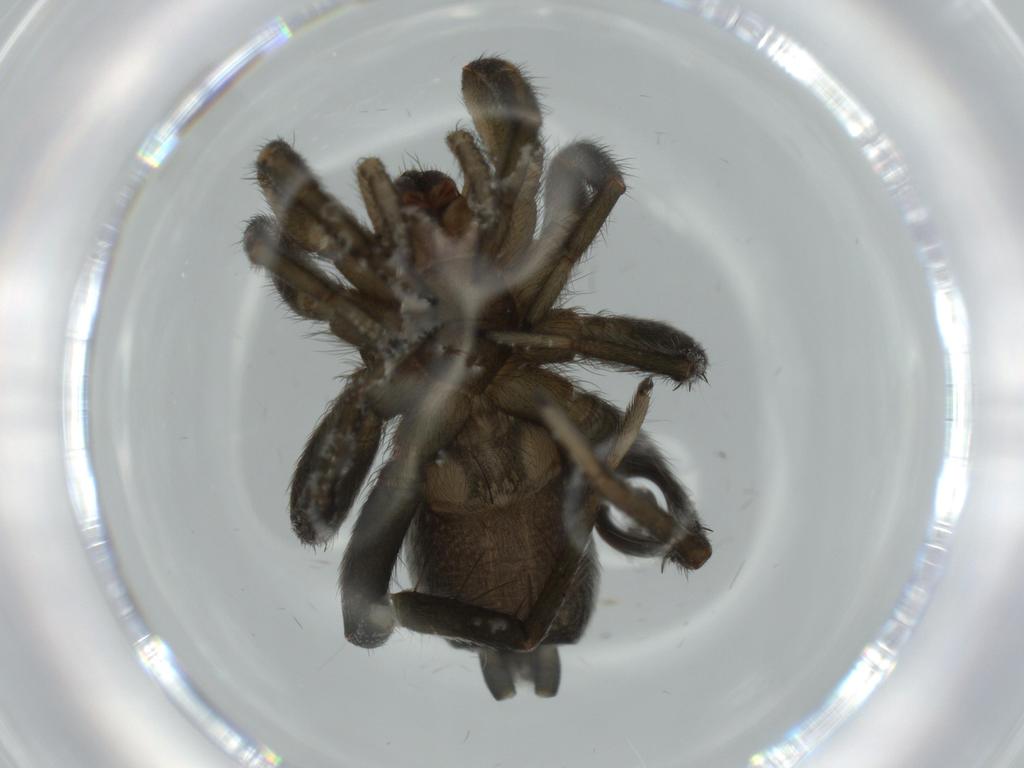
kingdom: Animalia
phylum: Arthropoda
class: Arachnida
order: Araneae
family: Gnaphosidae
